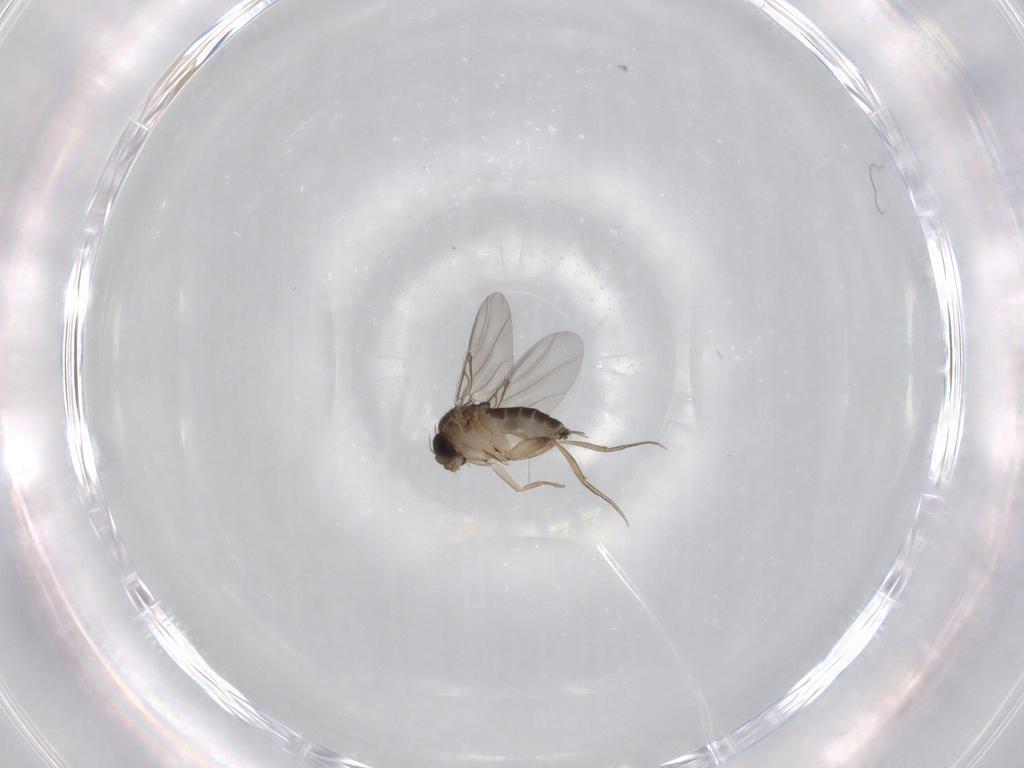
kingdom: Animalia
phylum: Arthropoda
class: Insecta
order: Diptera
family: Phoridae
